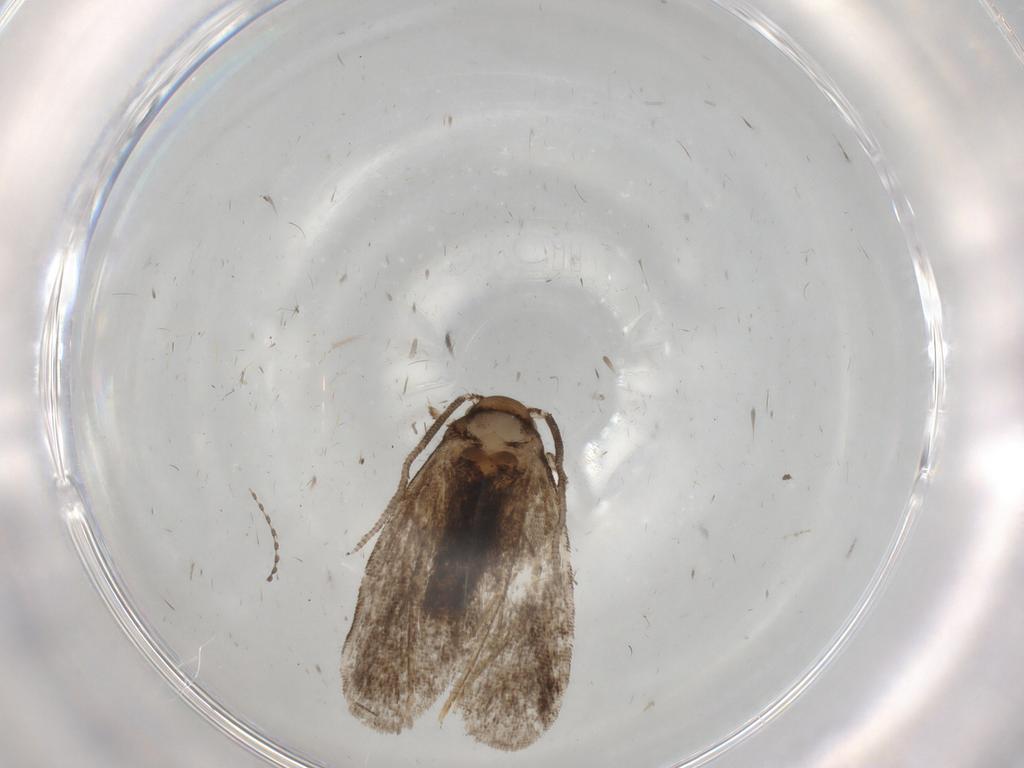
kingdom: Animalia
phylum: Arthropoda
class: Insecta
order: Lepidoptera
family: Dryadaulidae
